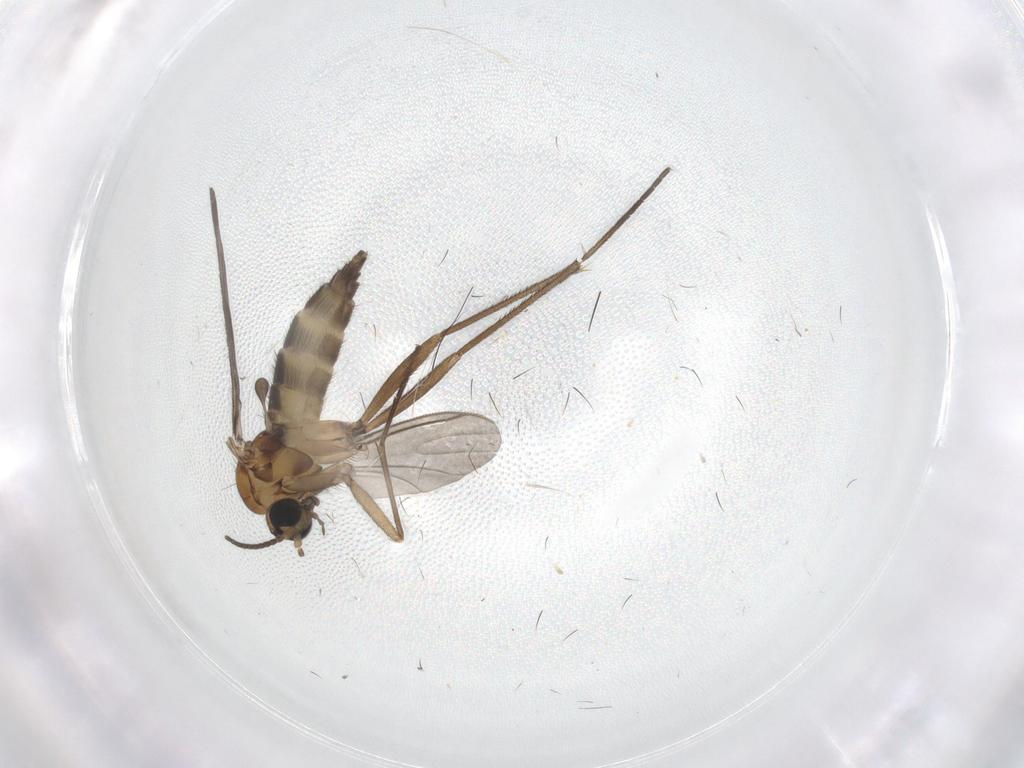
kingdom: Animalia
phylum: Arthropoda
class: Insecta
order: Diptera
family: Sciaridae
